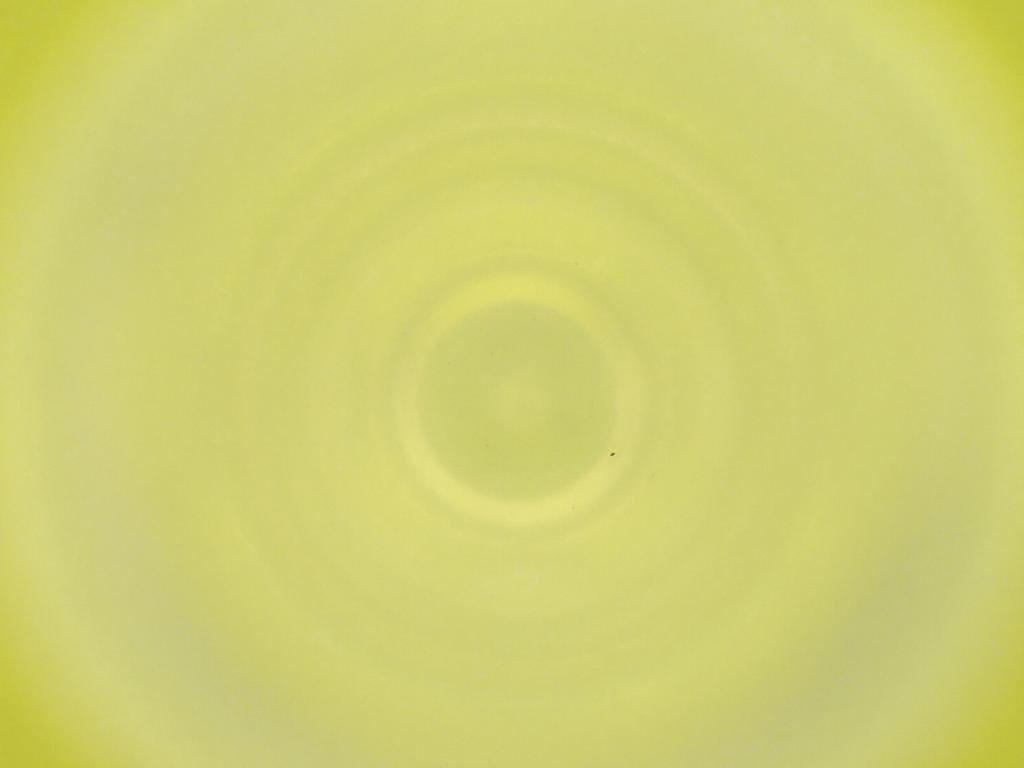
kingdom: Animalia
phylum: Arthropoda
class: Insecta
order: Diptera
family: Cecidomyiidae
